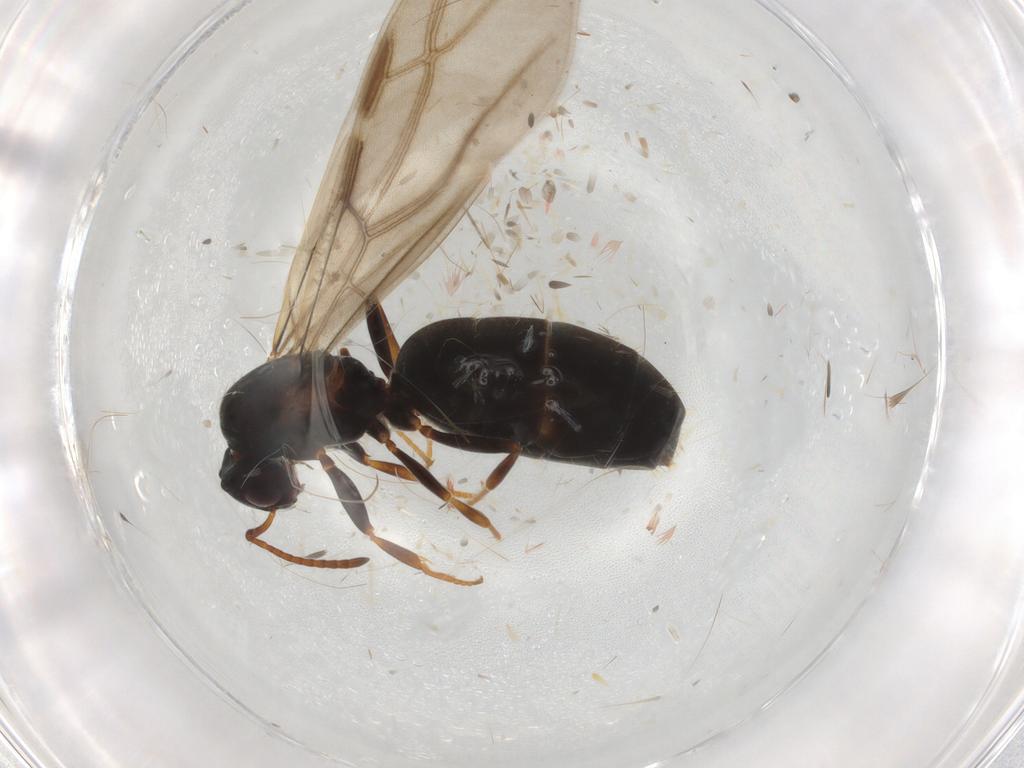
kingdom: Animalia
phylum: Arthropoda
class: Insecta
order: Hymenoptera
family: Formicidae
